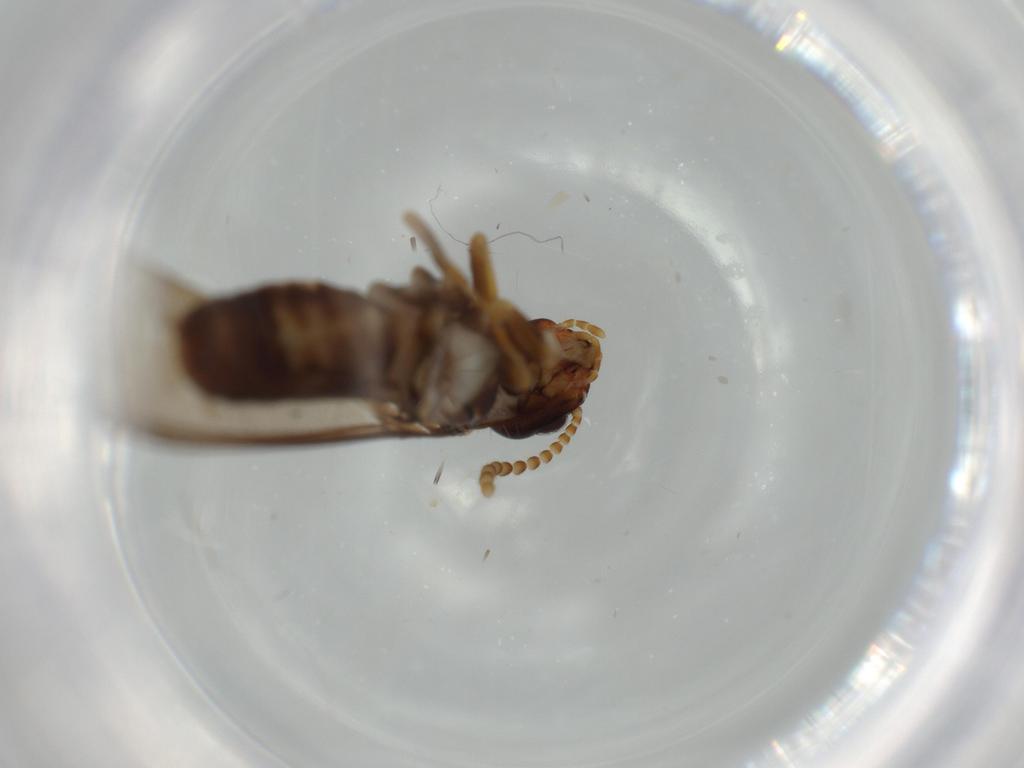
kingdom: Animalia
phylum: Arthropoda
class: Insecta
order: Blattodea
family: Kalotermitidae
